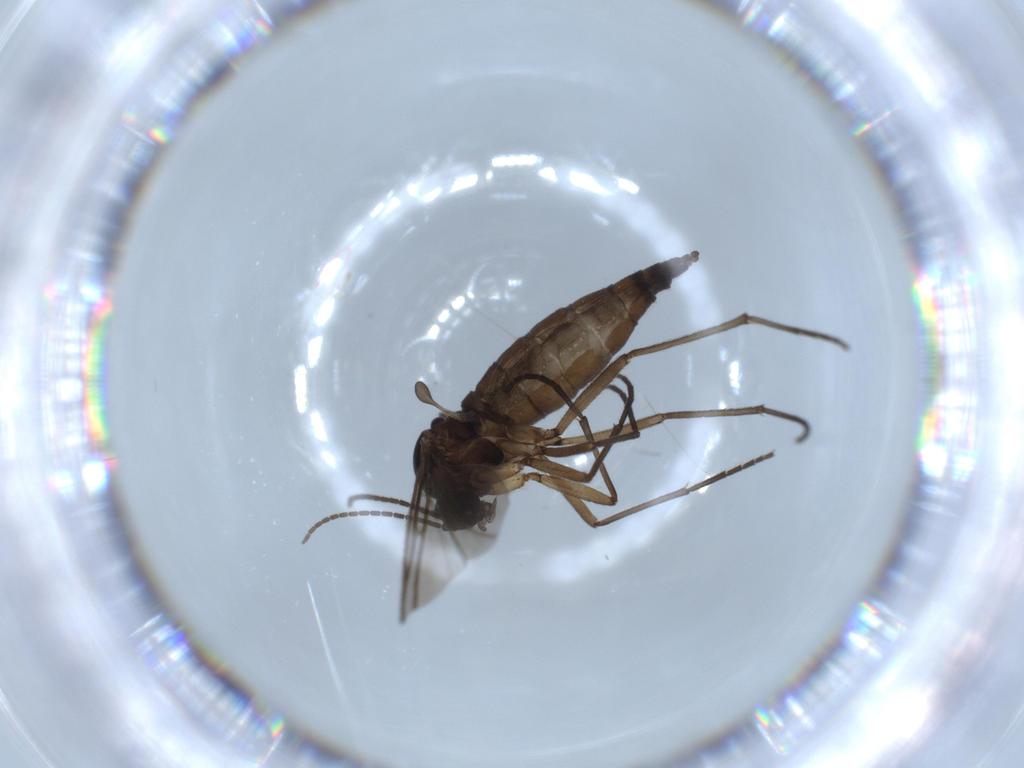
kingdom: Animalia
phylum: Arthropoda
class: Insecta
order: Diptera
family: Sciaridae
